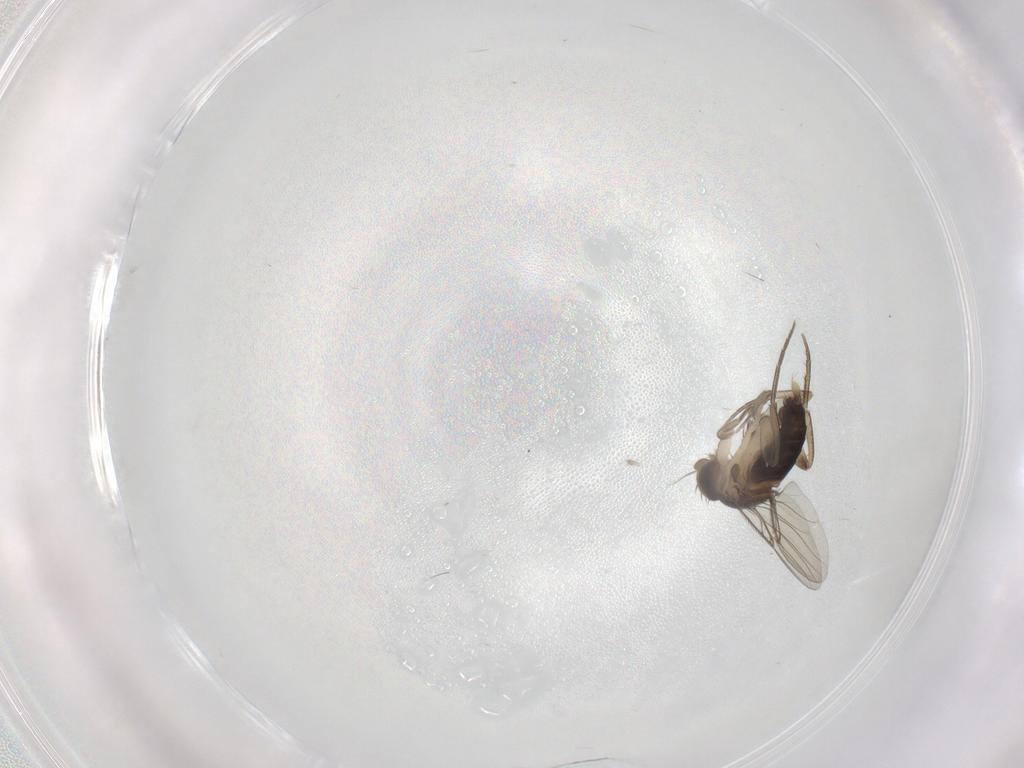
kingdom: Animalia
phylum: Arthropoda
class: Insecta
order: Diptera
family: Phoridae
